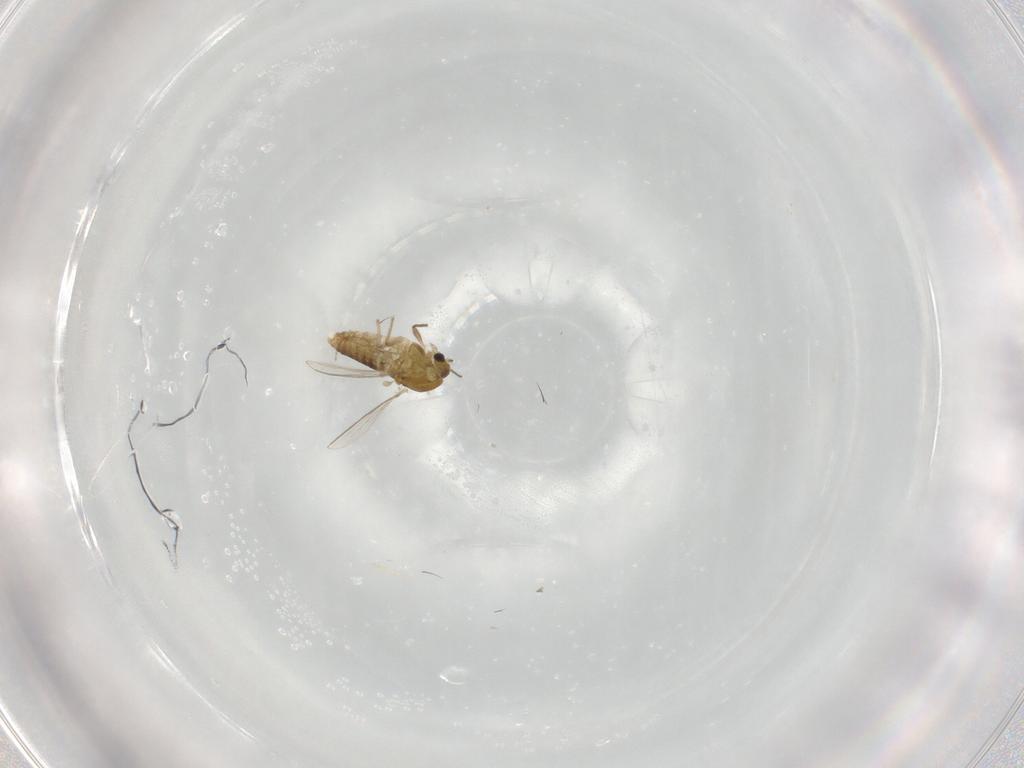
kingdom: Animalia
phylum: Arthropoda
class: Insecta
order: Diptera
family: Chironomidae
